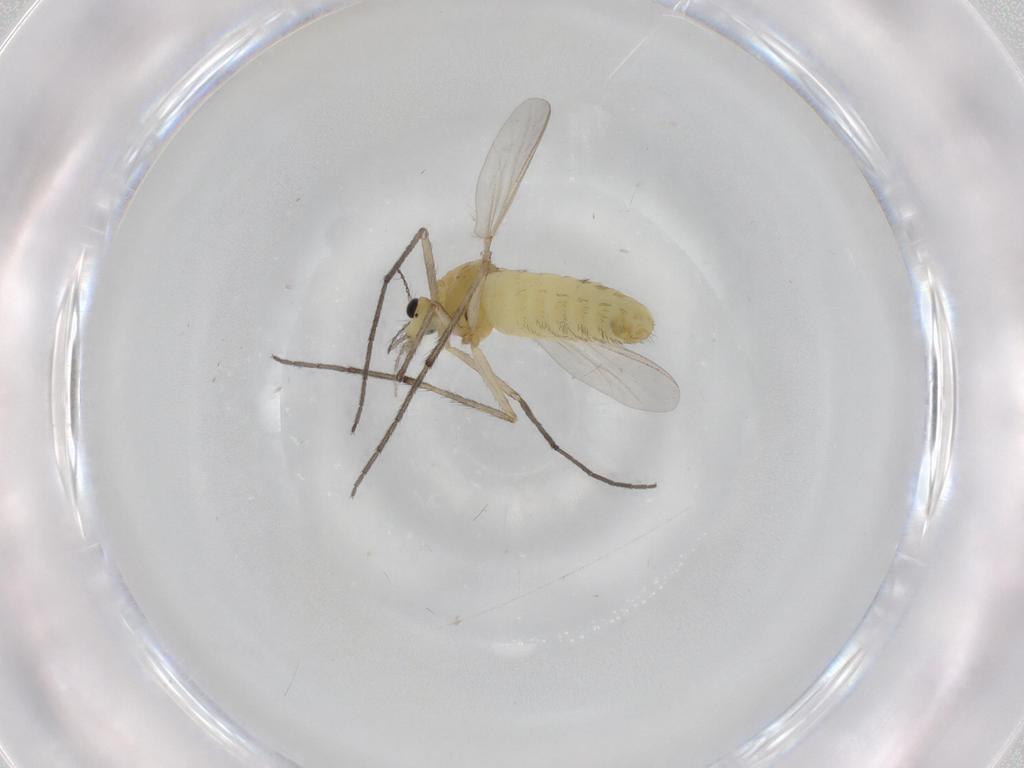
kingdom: Animalia
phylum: Arthropoda
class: Insecta
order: Diptera
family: Chironomidae
